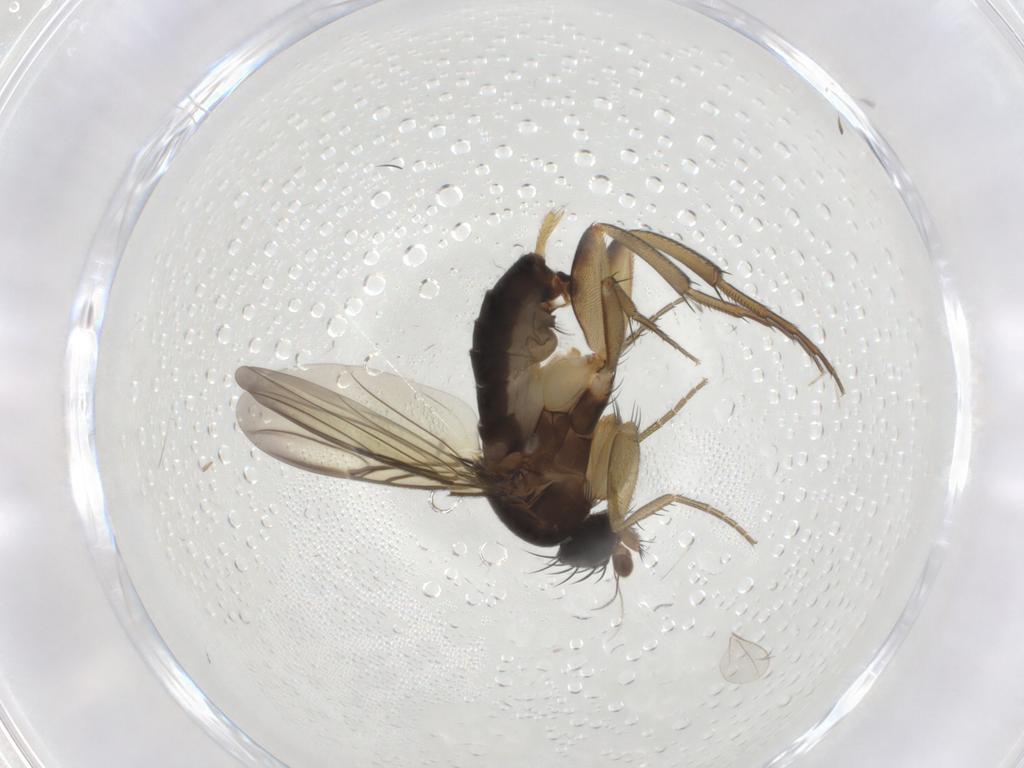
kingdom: Animalia
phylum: Arthropoda
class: Insecta
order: Diptera
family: Phoridae
